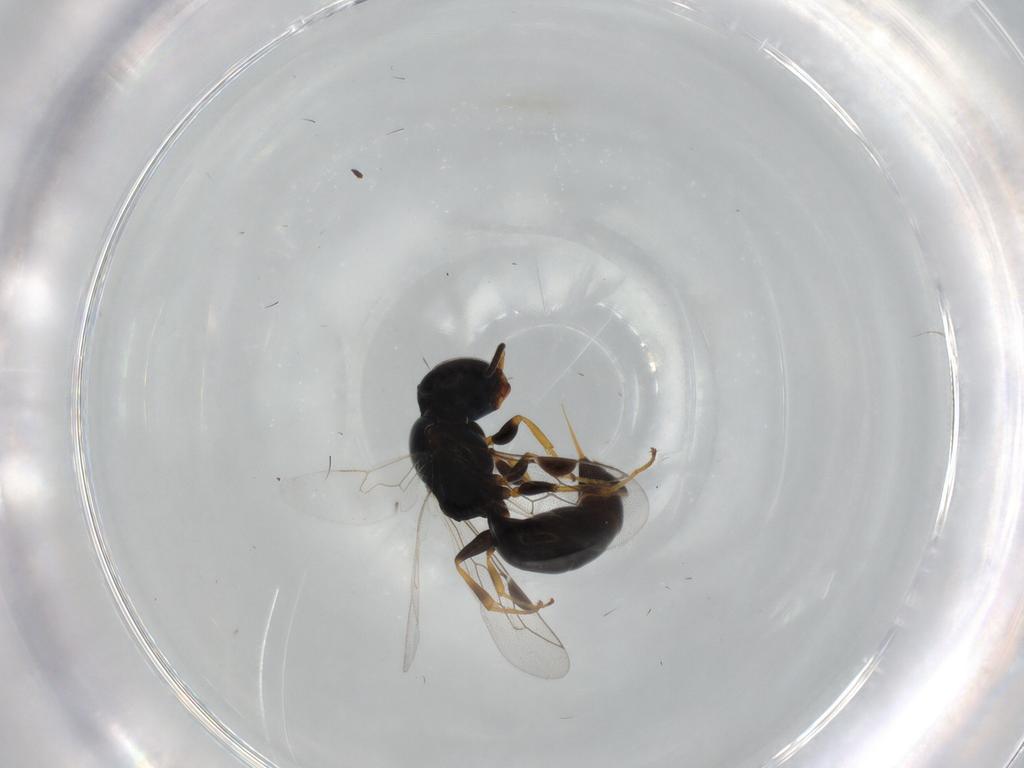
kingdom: Animalia
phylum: Arthropoda
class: Insecta
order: Hymenoptera
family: Pemphredonidae
